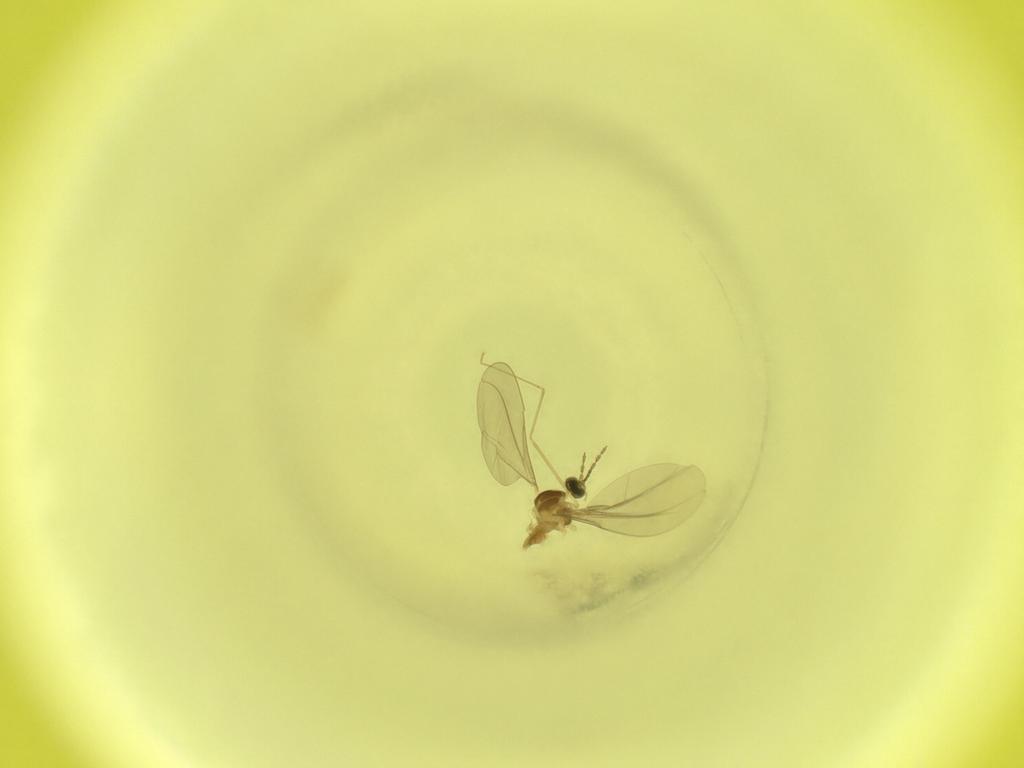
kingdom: Animalia
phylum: Arthropoda
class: Insecta
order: Diptera
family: Cecidomyiidae
